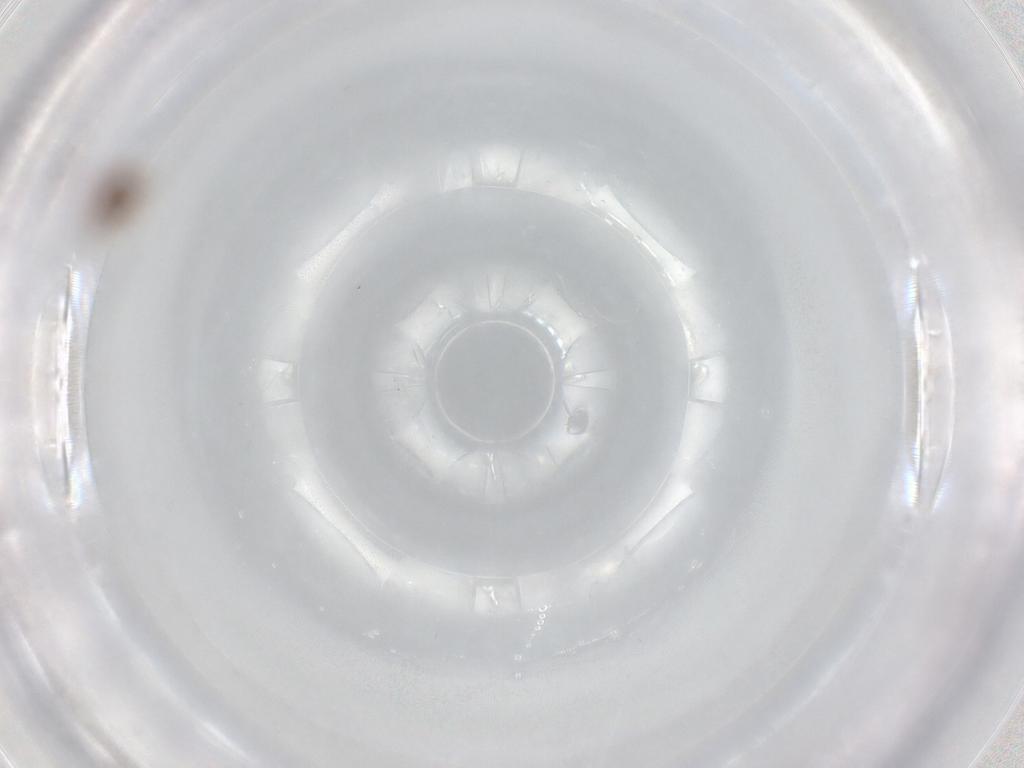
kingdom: Animalia
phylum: Arthropoda
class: Insecta
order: Psocodea
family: Caeciliusidae
